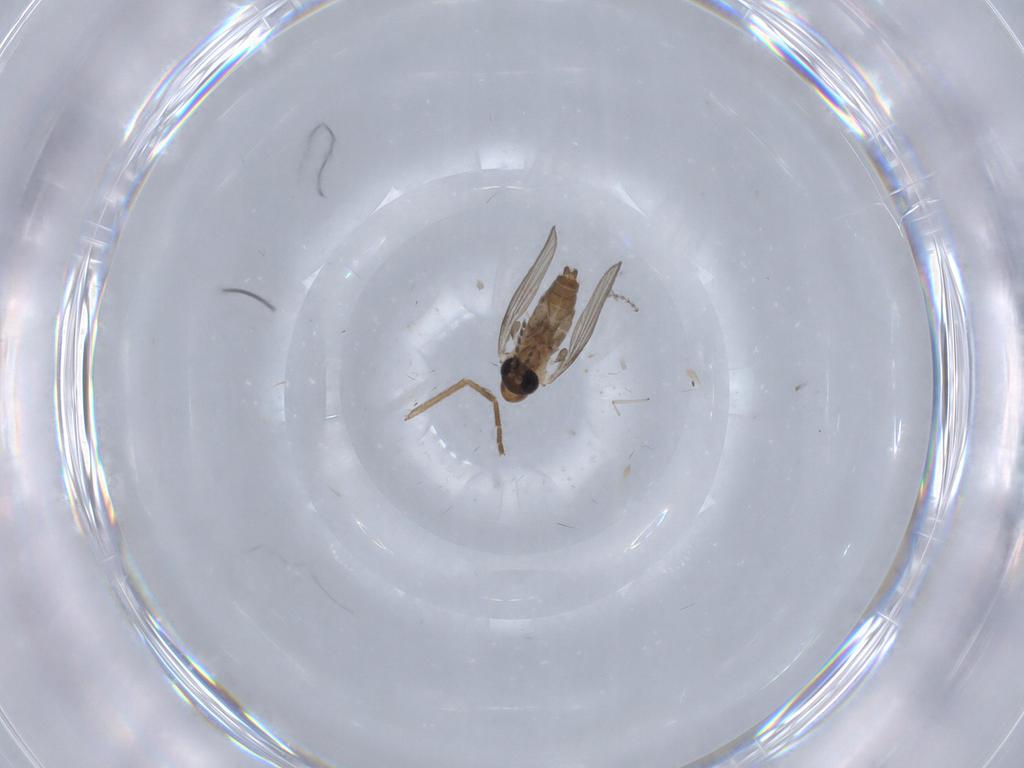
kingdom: Animalia
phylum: Arthropoda
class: Insecta
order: Diptera
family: Psychodidae
